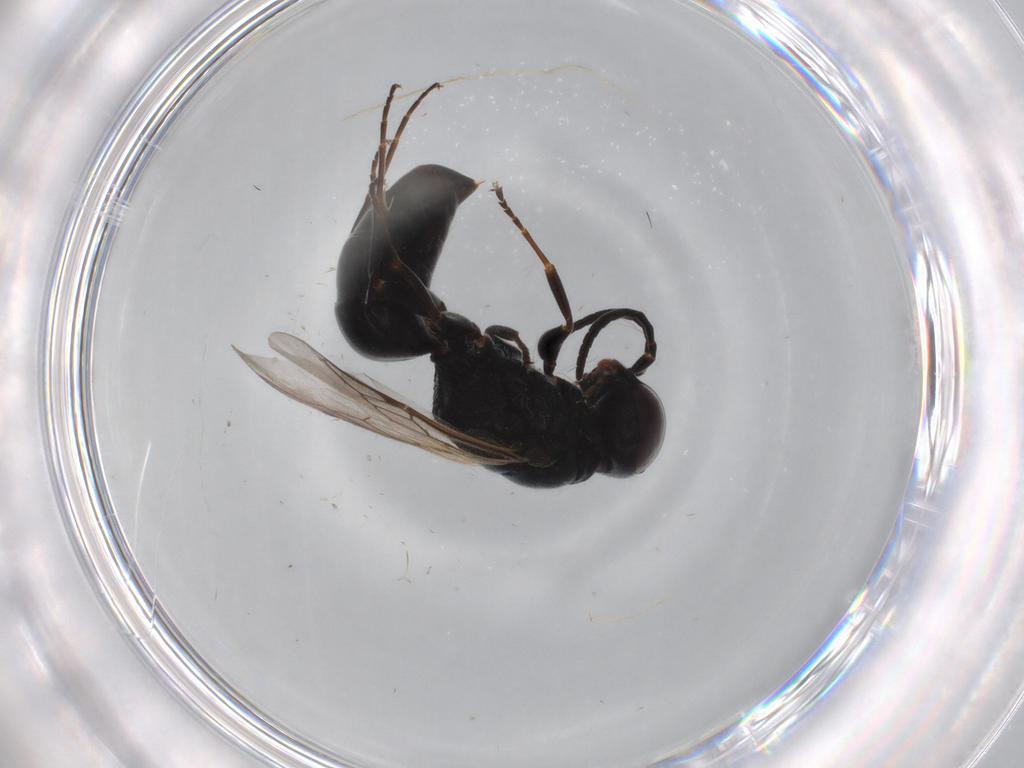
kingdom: Animalia
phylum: Arthropoda
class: Insecta
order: Hymenoptera
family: Crabronidae
